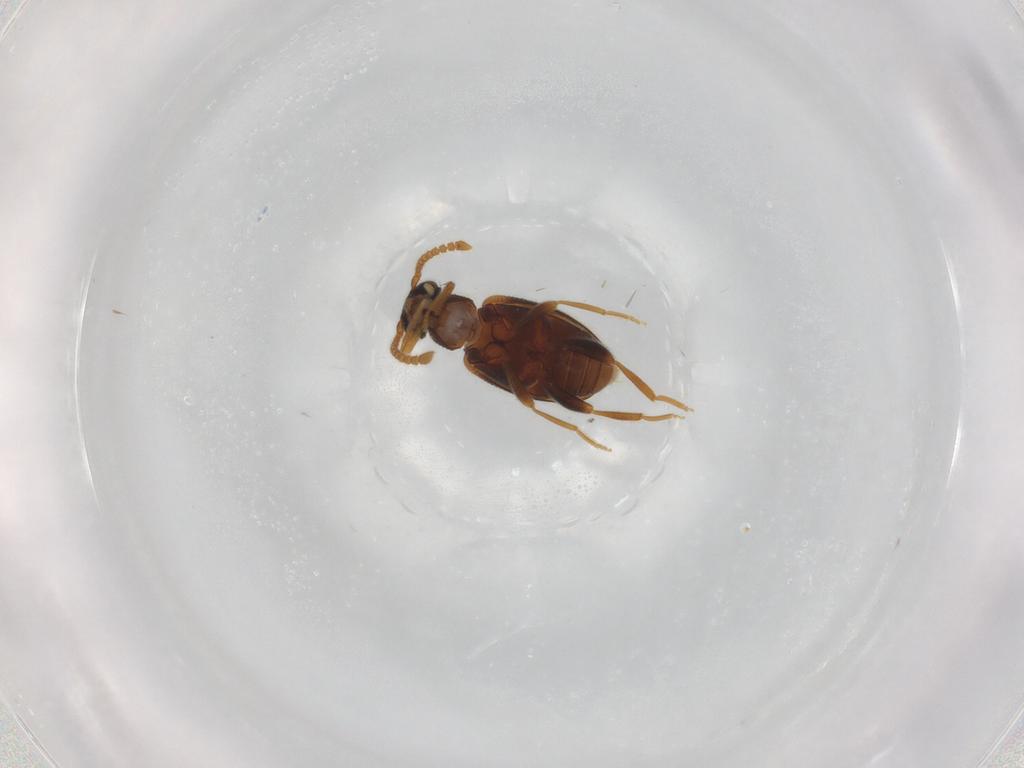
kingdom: Animalia
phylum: Arthropoda
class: Insecta
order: Coleoptera
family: Aderidae
